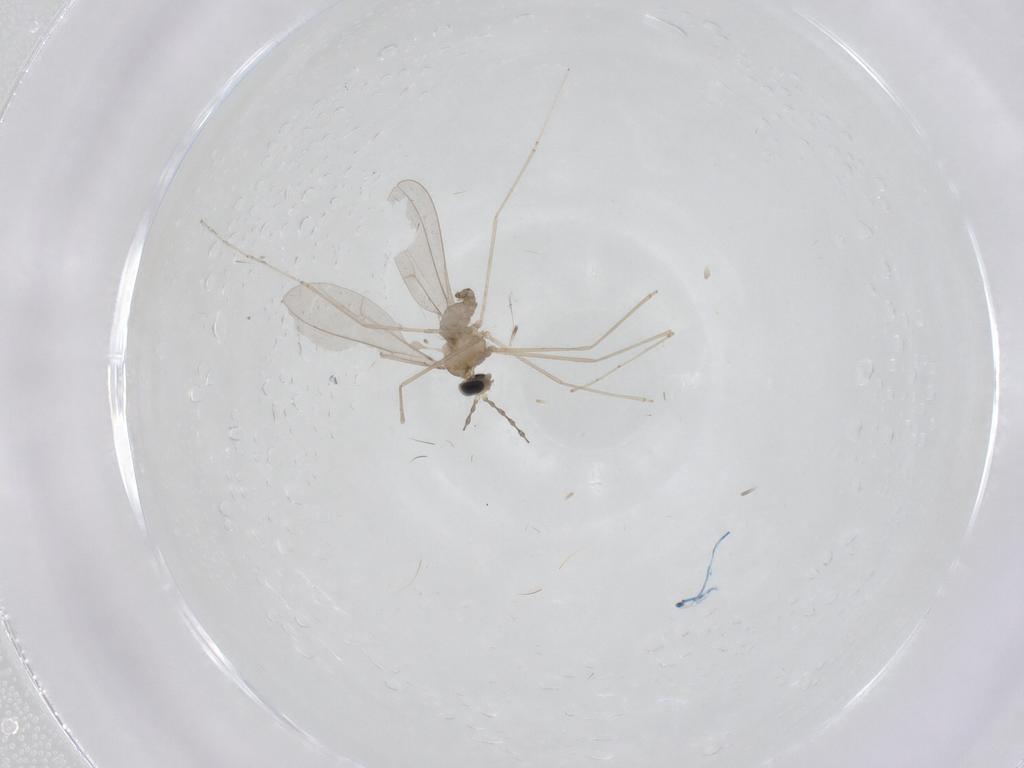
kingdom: Animalia
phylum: Arthropoda
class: Insecta
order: Diptera
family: Cecidomyiidae
